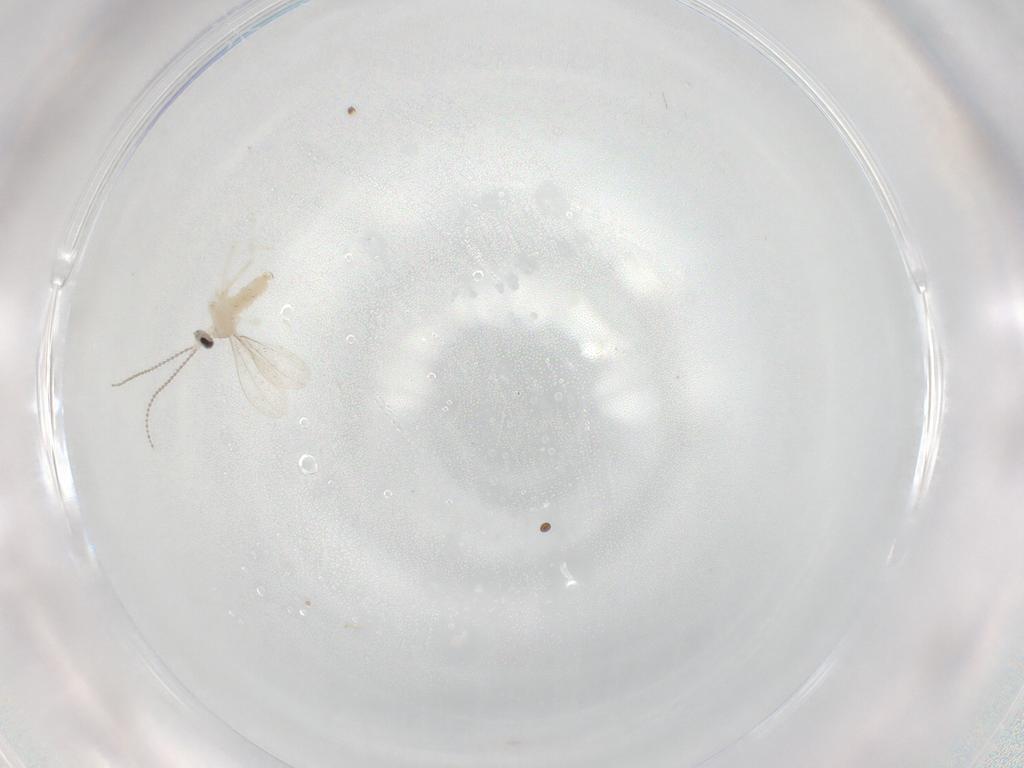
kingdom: Animalia
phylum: Arthropoda
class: Insecta
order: Diptera
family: Cecidomyiidae
